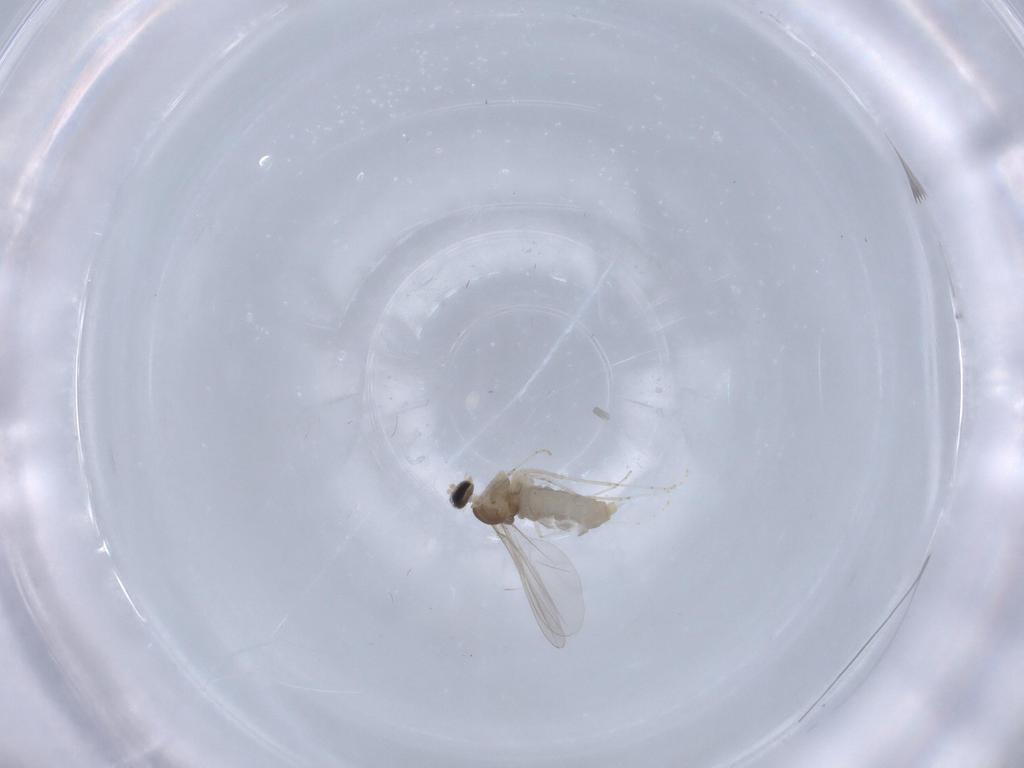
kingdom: Animalia
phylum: Arthropoda
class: Insecta
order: Diptera
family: Cecidomyiidae
